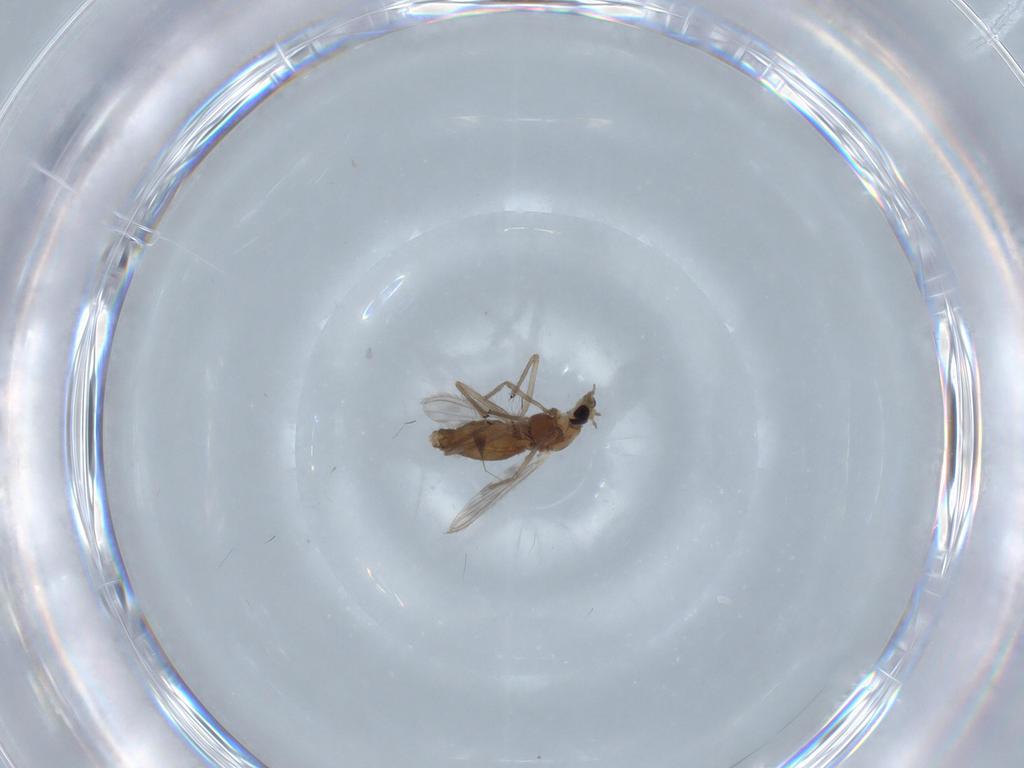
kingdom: Animalia
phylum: Arthropoda
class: Insecta
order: Diptera
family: Chironomidae
